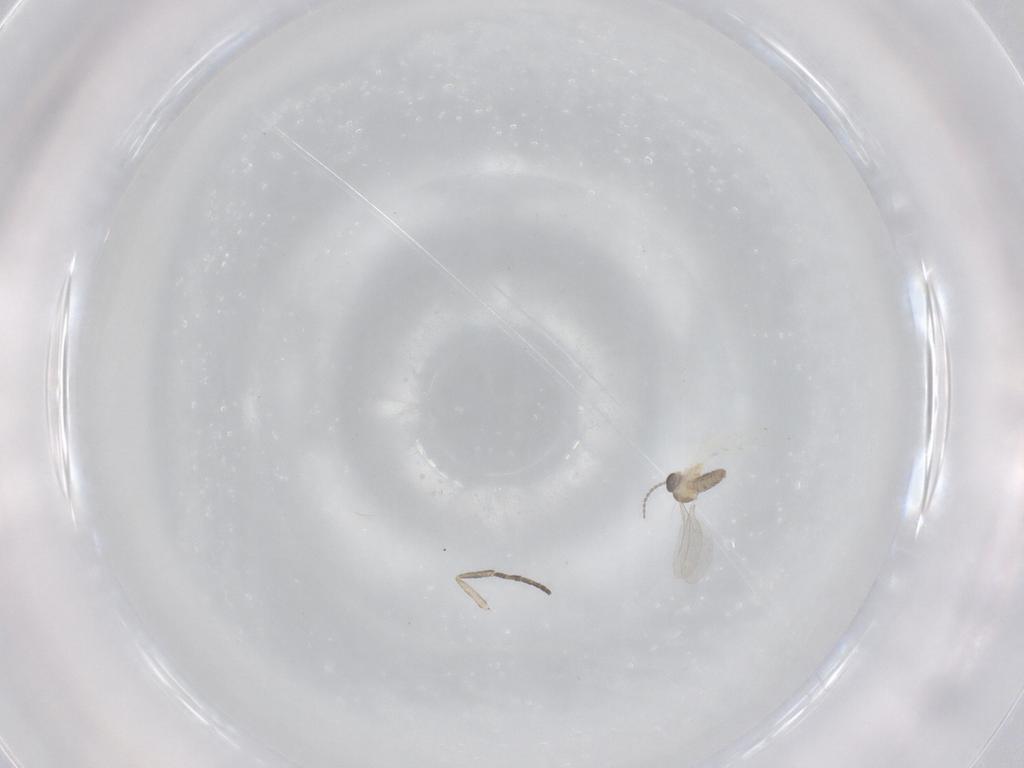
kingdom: Animalia
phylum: Arthropoda
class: Insecta
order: Diptera
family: Cecidomyiidae
